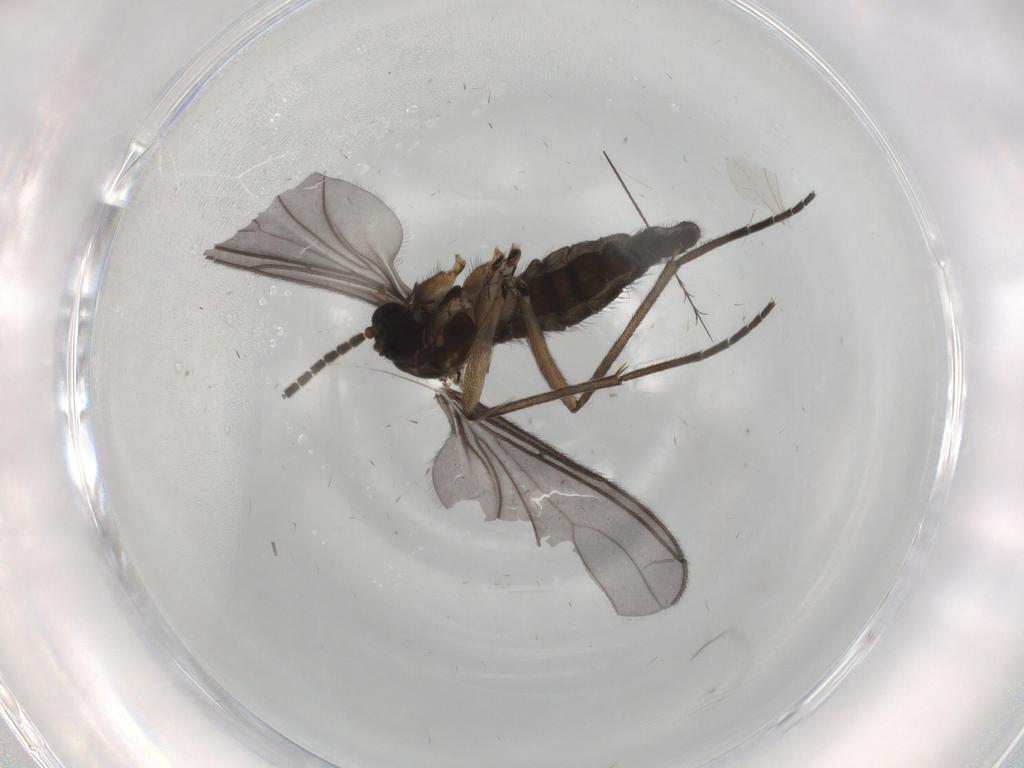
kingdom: Animalia
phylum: Arthropoda
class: Insecta
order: Diptera
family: Sciaridae
